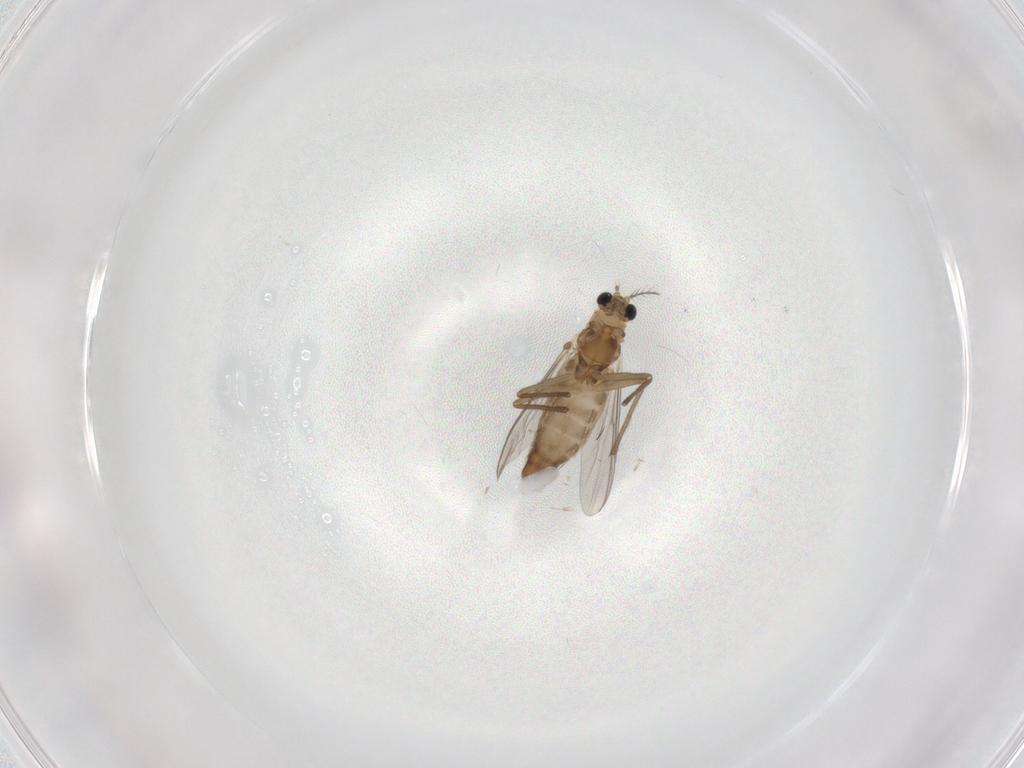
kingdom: Animalia
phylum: Arthropoda
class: Insecta
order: Diptera
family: Chironomidae
